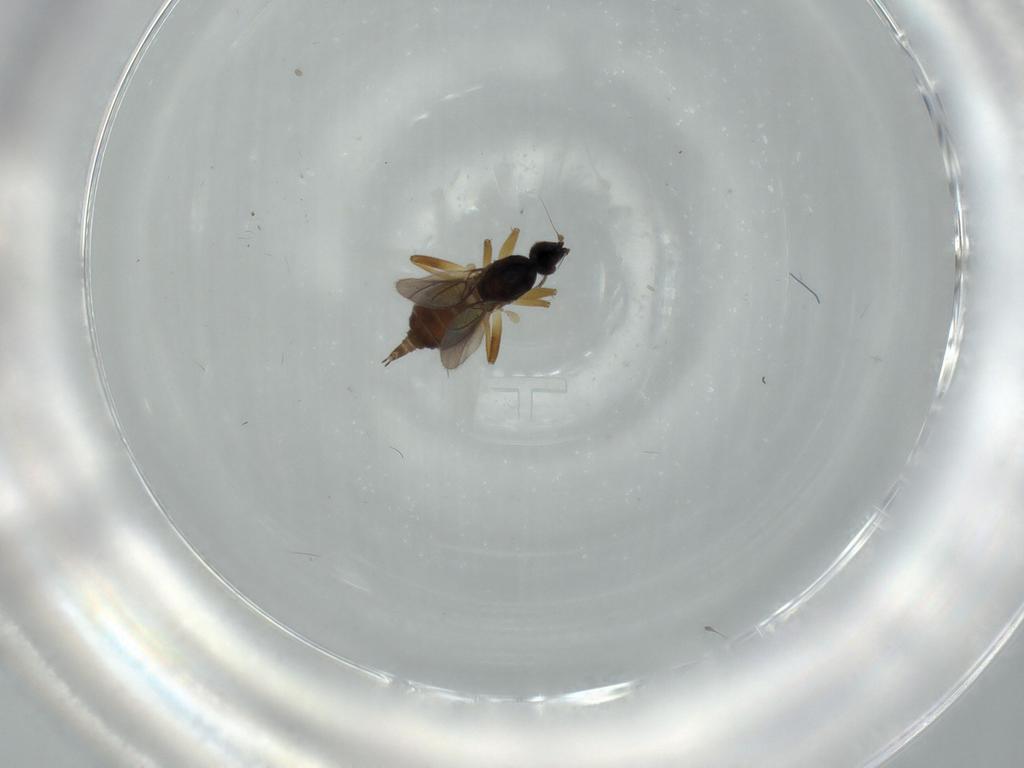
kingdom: Animalia
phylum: Arthropoda
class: Insecta
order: Diptera
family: Hybotidae
